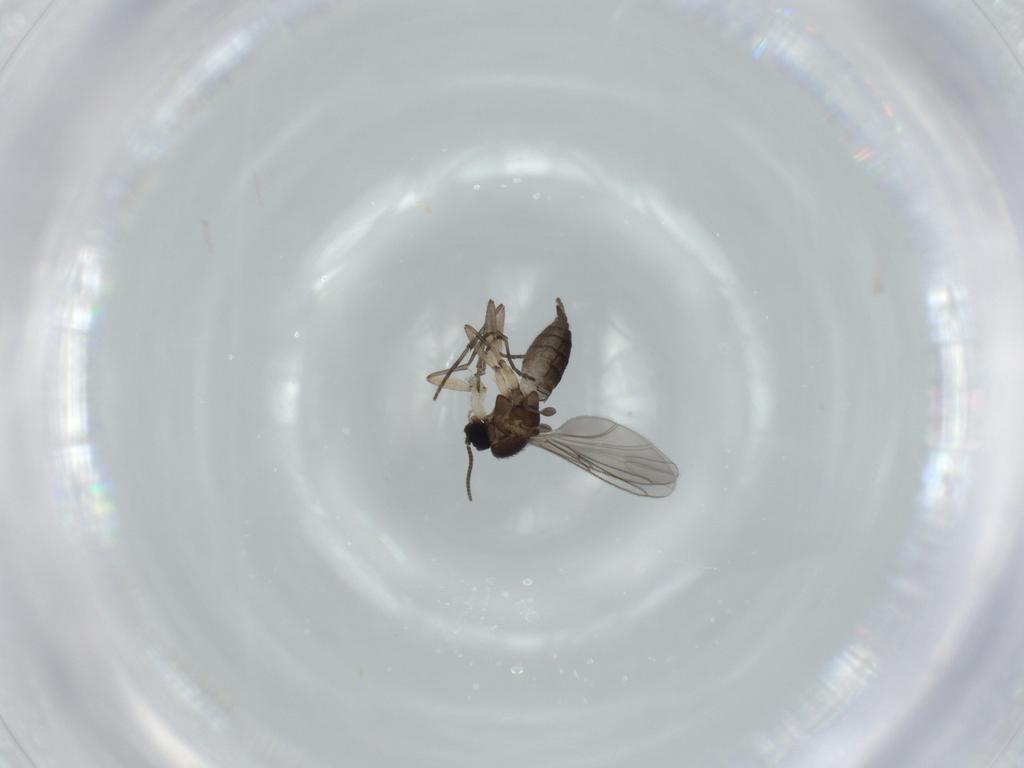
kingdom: Animalia
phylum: Arthropoda
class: Insecta
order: Diptera
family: Sciaridae
